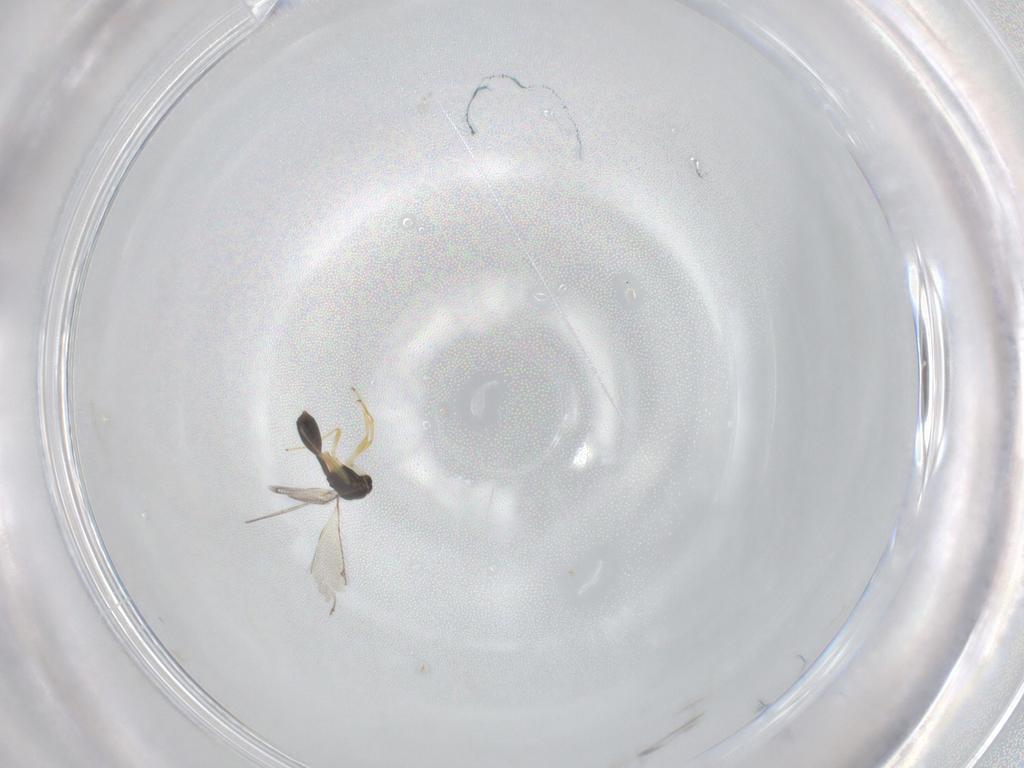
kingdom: Animalia
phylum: Arthropoda
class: Insecta
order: Hymenoptera
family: Diparidae
